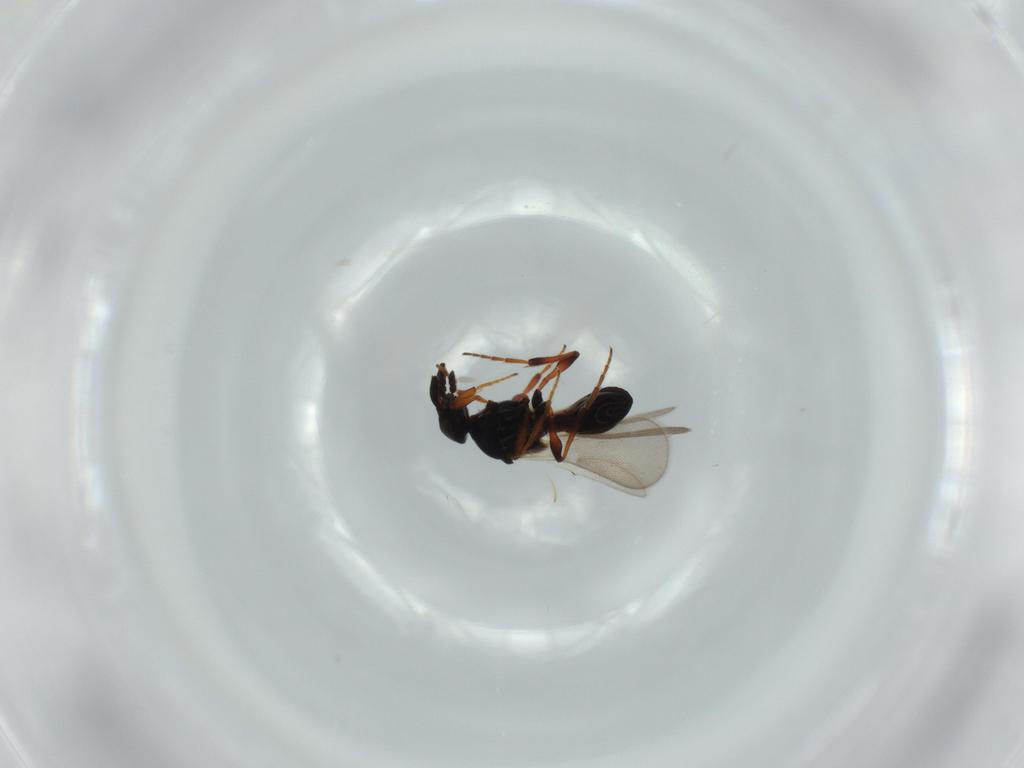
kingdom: Animalia
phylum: Arthropoda
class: Insecta
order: Hymenoptera
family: Platygastridae
